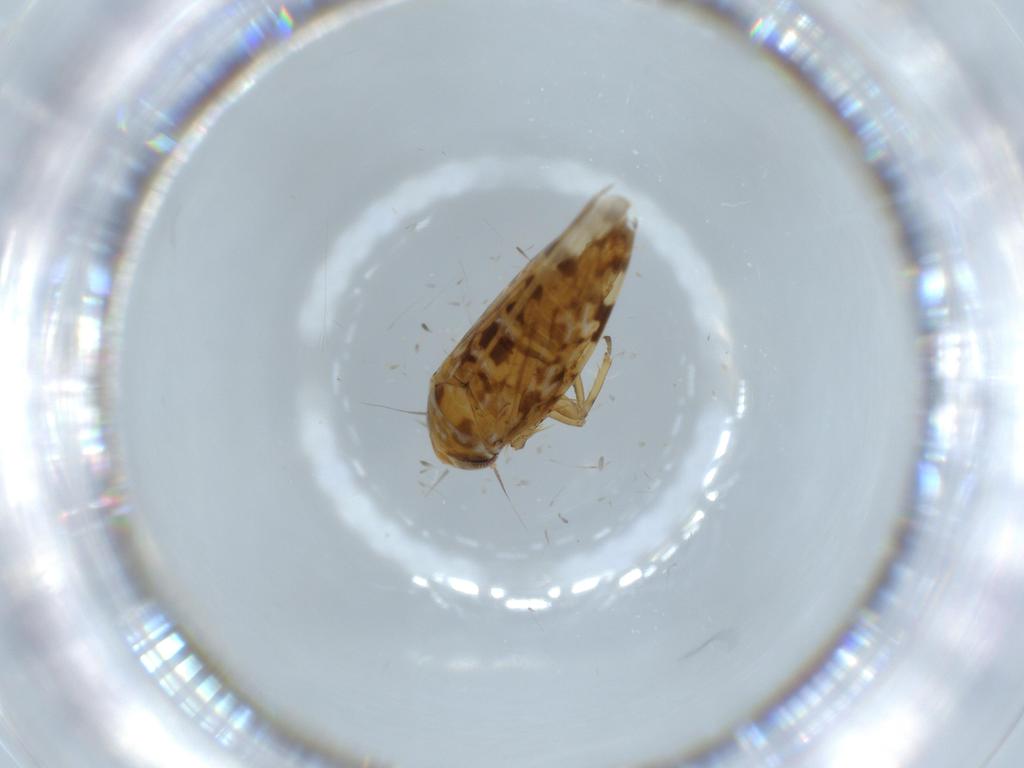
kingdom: Animalia
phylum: Arthropoda
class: Insecta
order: Hemiptera
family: Cicadellidae
